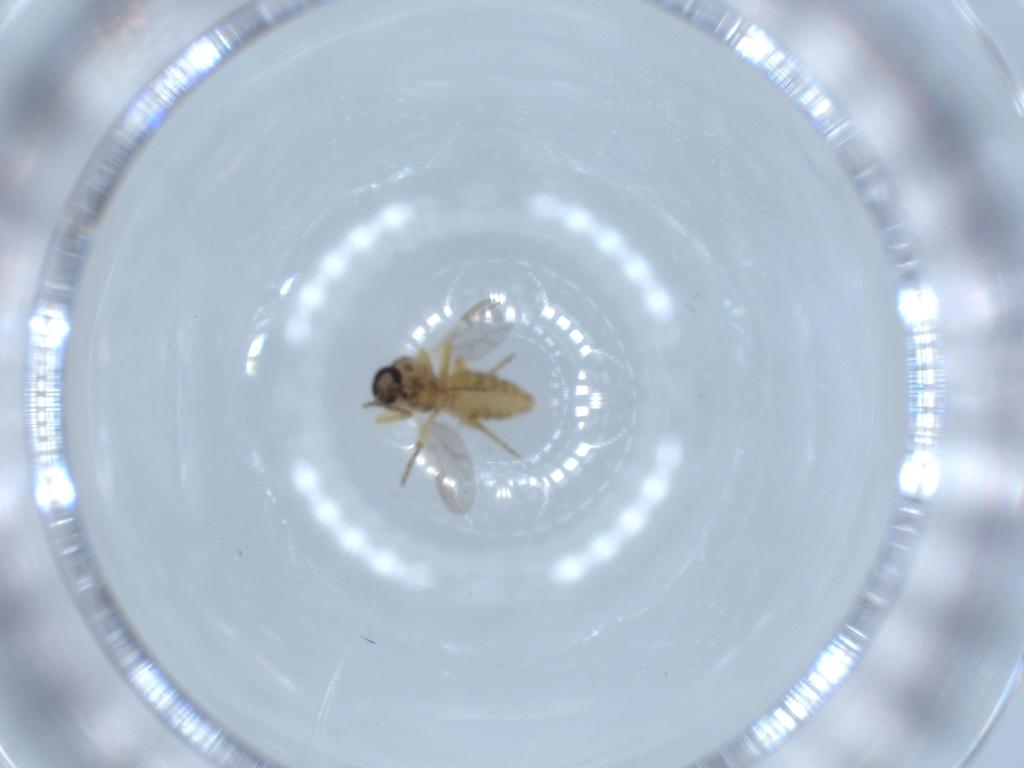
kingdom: Animalia
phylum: Arthropoda
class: Insecta
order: Diptera
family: Ceratopogonidae
